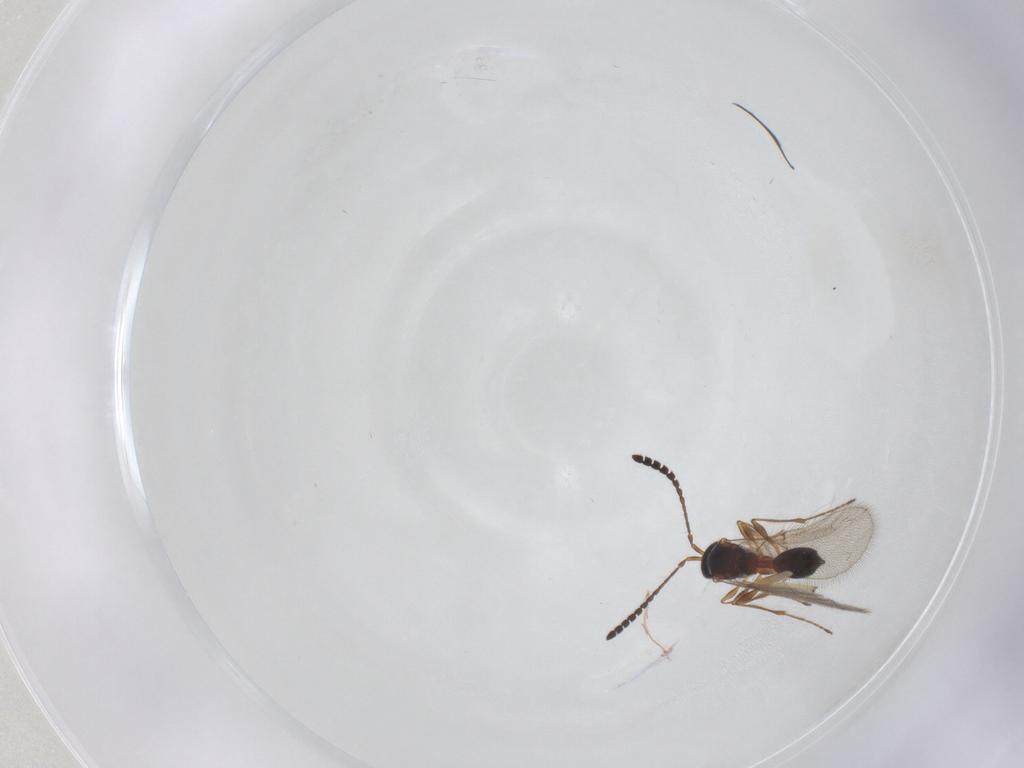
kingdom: Animalia
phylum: Arthropoda
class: Insecta
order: Hymenoptera
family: Diapriidae
